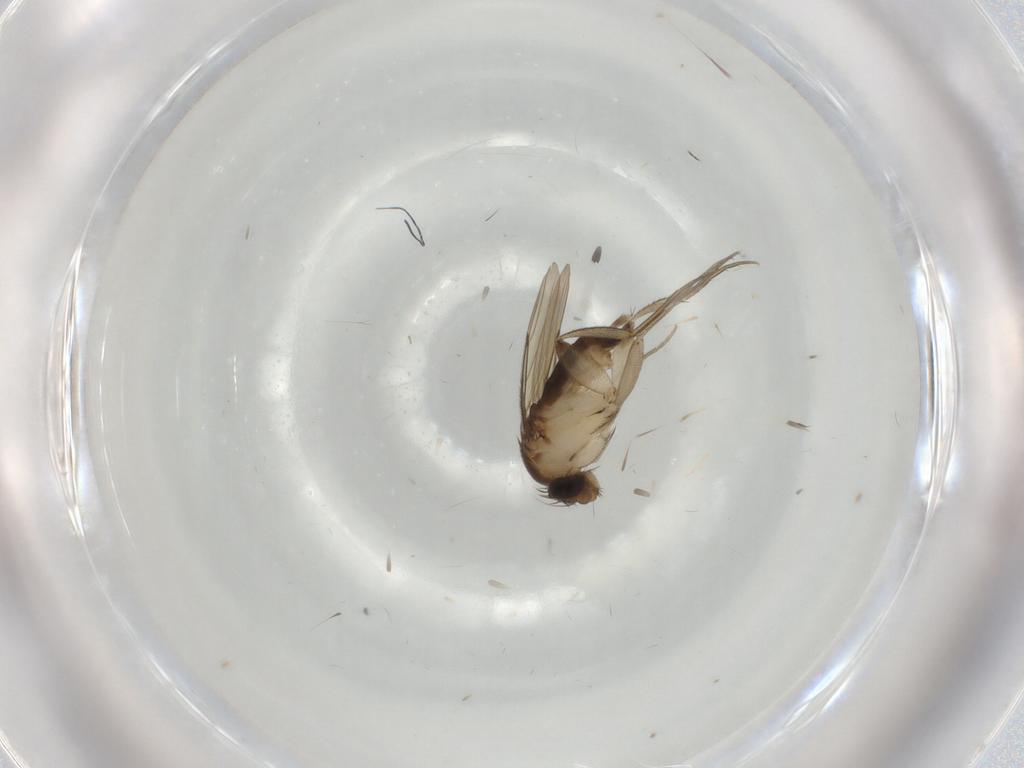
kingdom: Animalia
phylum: Arthropoda
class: Insecta
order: Diptera
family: Phoridae
